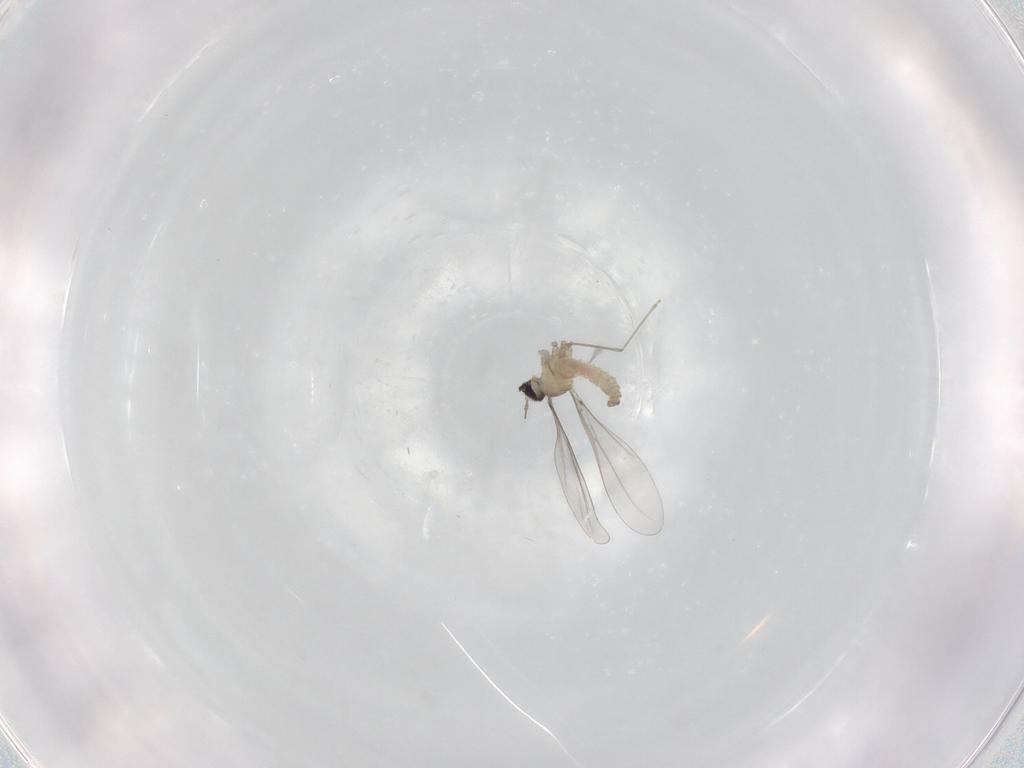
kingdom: Animalia
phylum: Arthropoda
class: Insecta
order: Diptera
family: Cecidomyiidae
